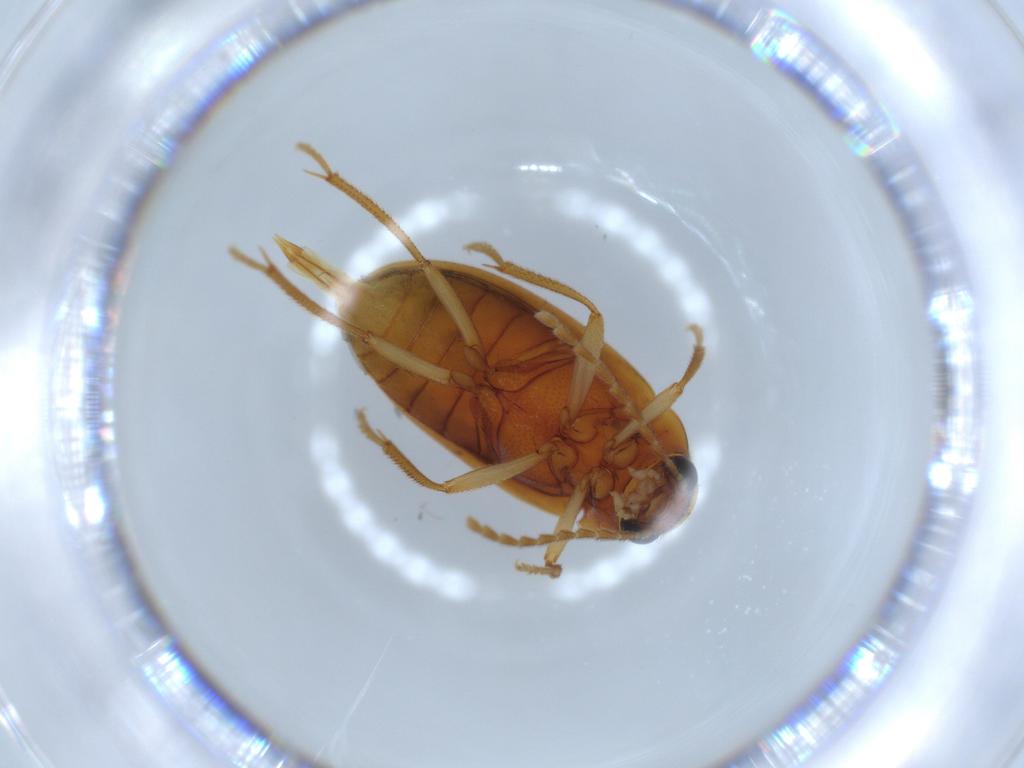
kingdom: Animalia
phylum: Arthropoda
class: Insecta
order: Coleoptera
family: Ptilodactylidae
